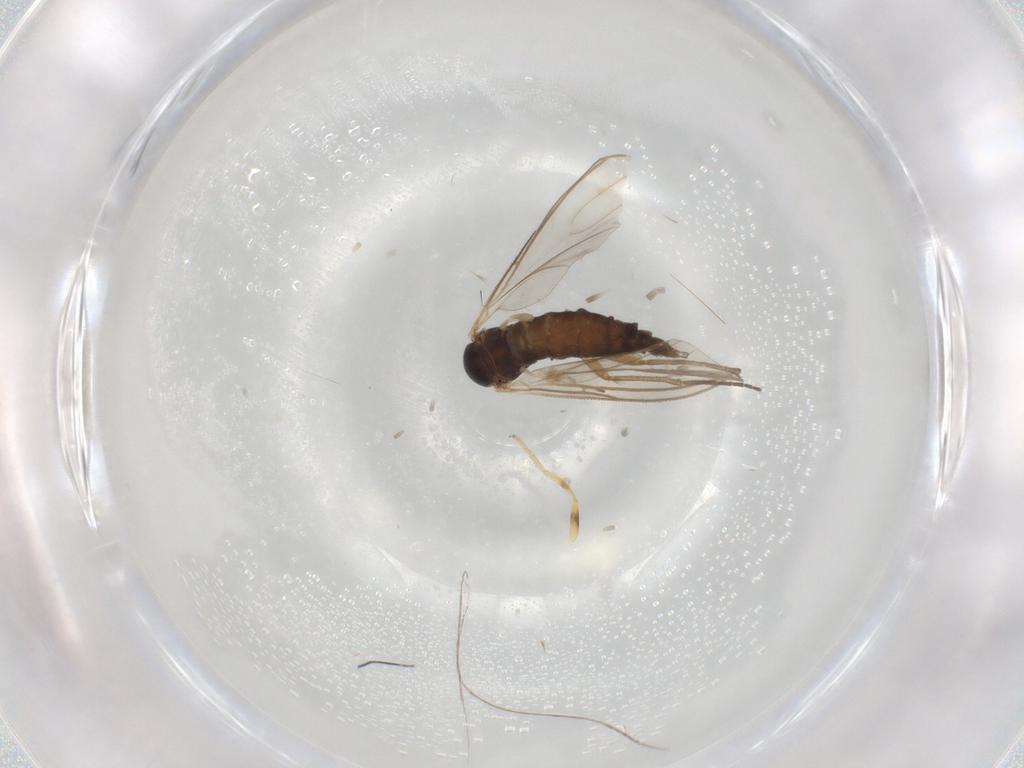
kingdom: Animalia
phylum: Arthropoda
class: Insecta
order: Diptera
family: Chloropidae
